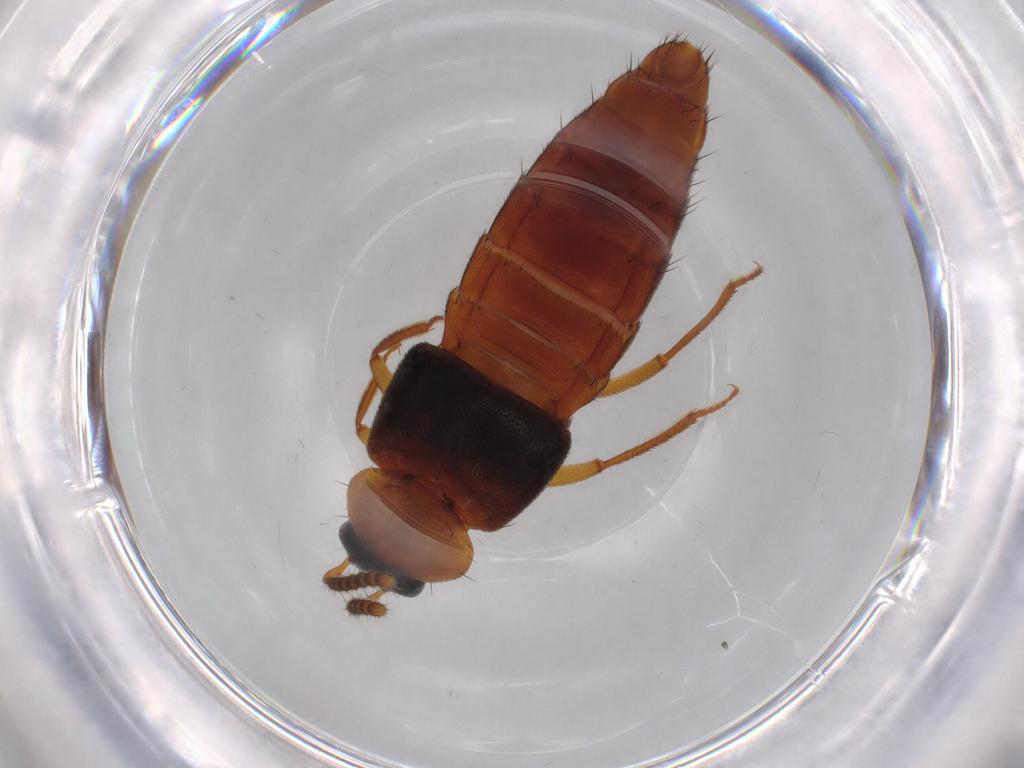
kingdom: Animalia
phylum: Arthropoda
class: Insecta
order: Coleoptera
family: Staphylinidae
